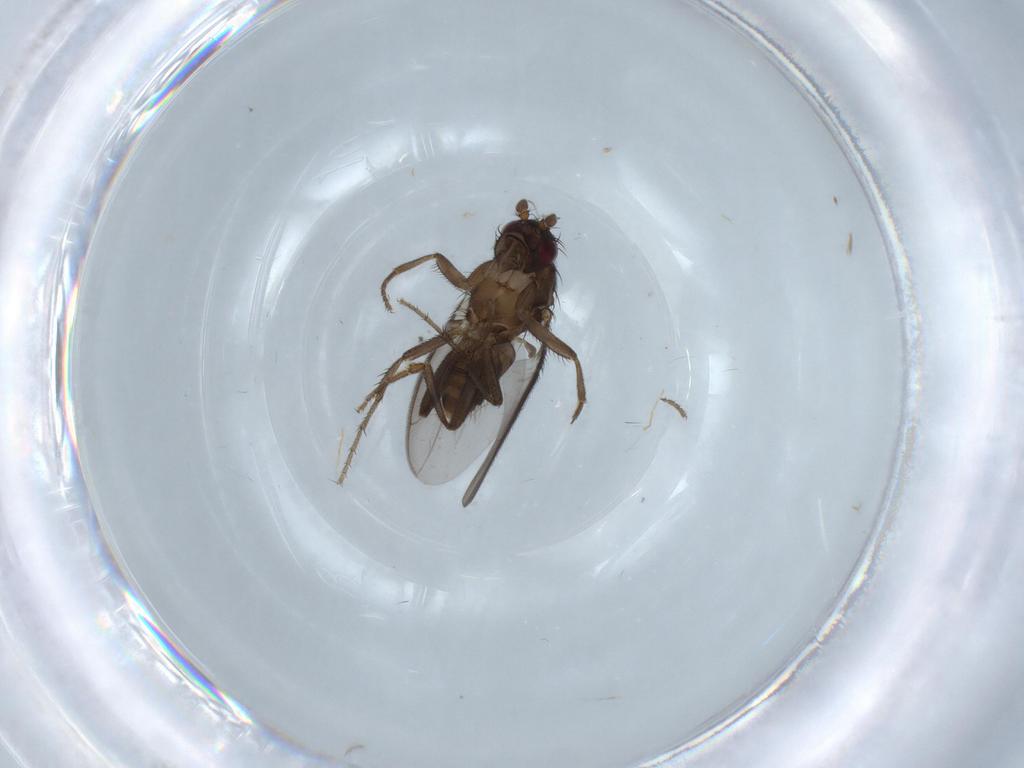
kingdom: Animalia
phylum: Arthropoda
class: Insecta
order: Diptera
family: Sphaeroceridae
